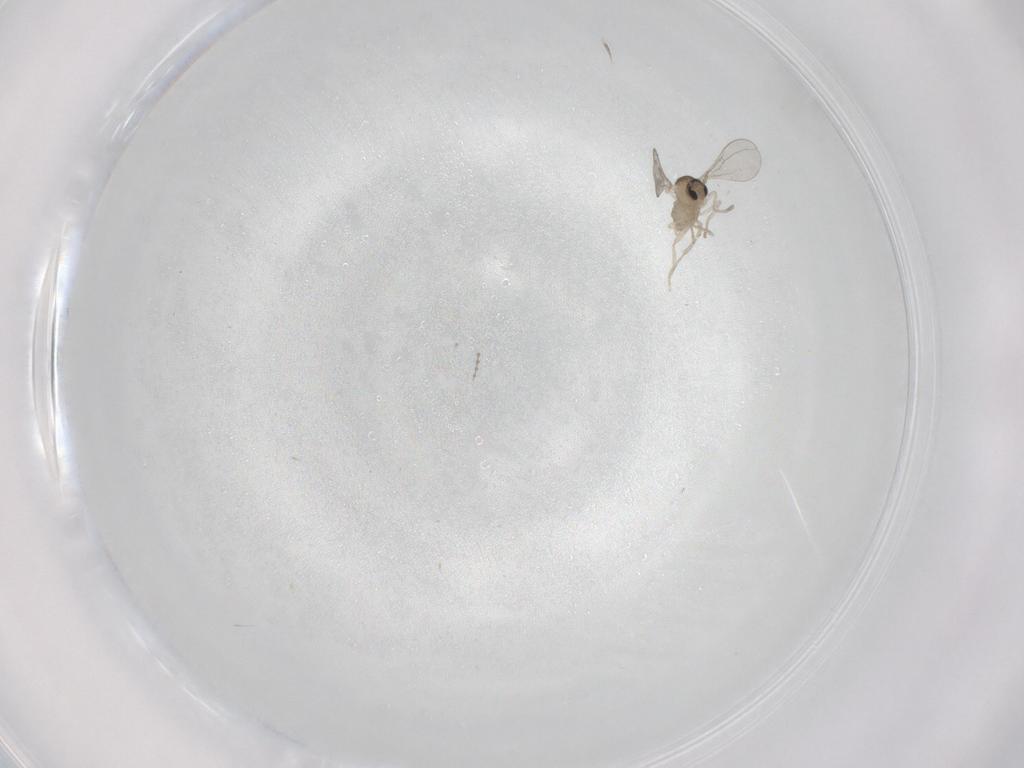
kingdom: Animalia
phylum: Arthropoda
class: Insecta
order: Diptera
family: Cecidomyiidae
